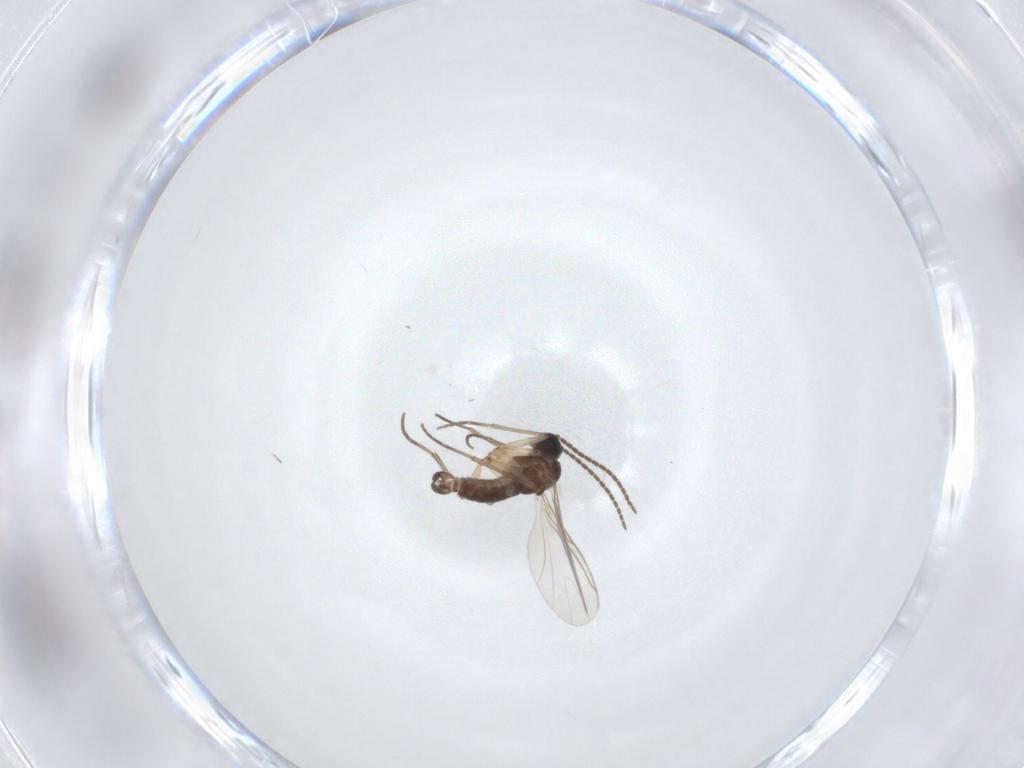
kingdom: Animalia
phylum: Arthropoda
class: Insecta
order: Diptera
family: Sciaridae
